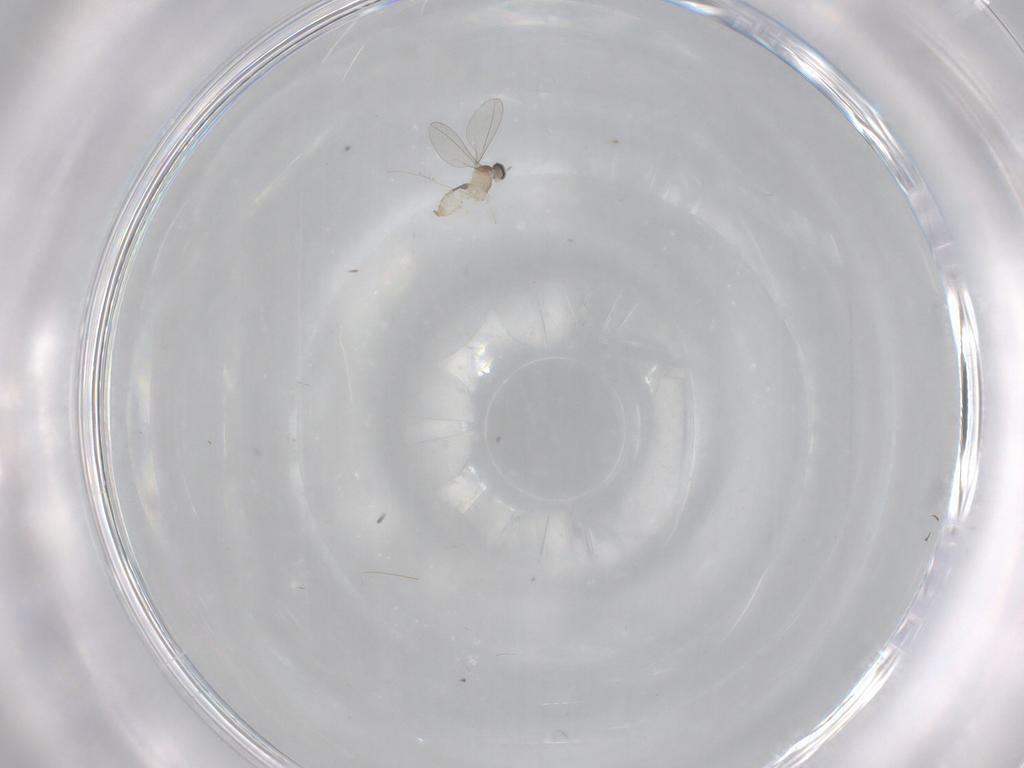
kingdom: Animalia
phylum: Arthropoda
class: Insecta
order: Diptera
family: Cecidomyiidae
